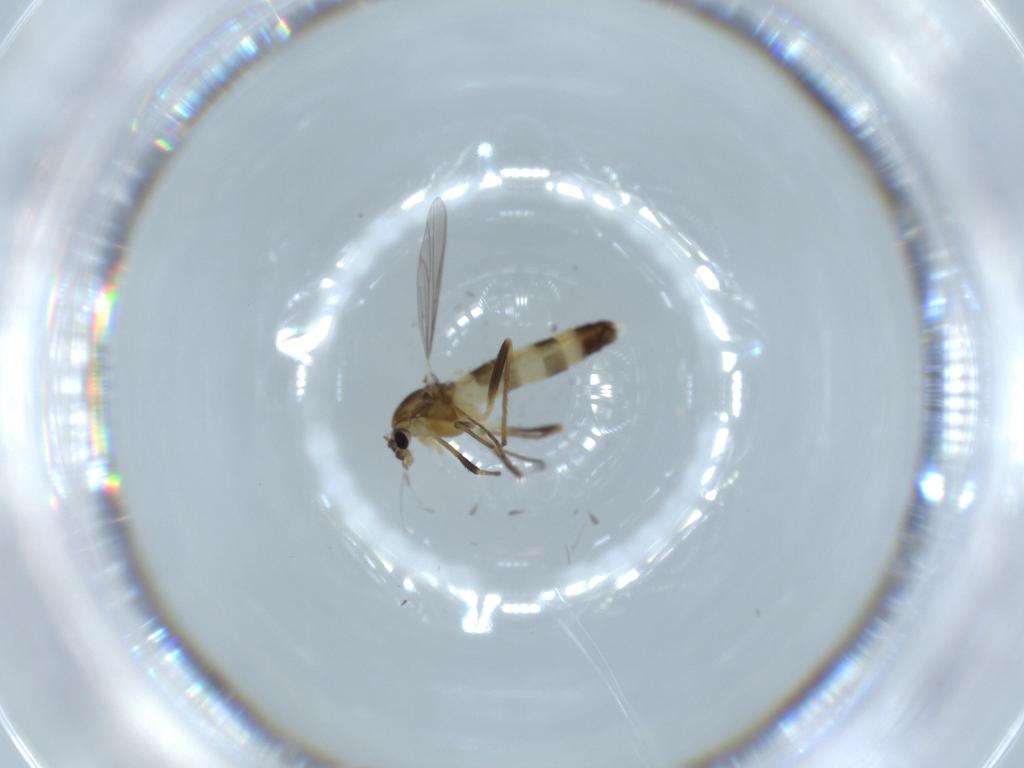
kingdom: Animalia
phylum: Arthropoda
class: Insecta
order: Diptera
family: Chironomidae
